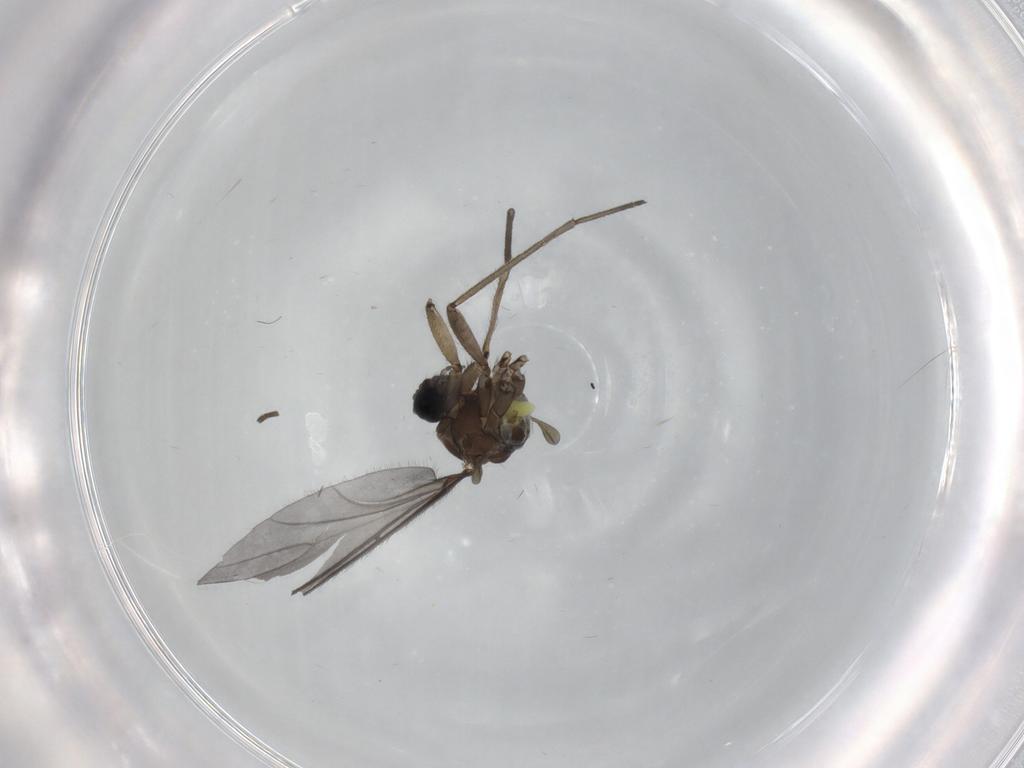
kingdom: Animalia
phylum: Arthropoda
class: Insecta
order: Diptera
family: Sciaridae
